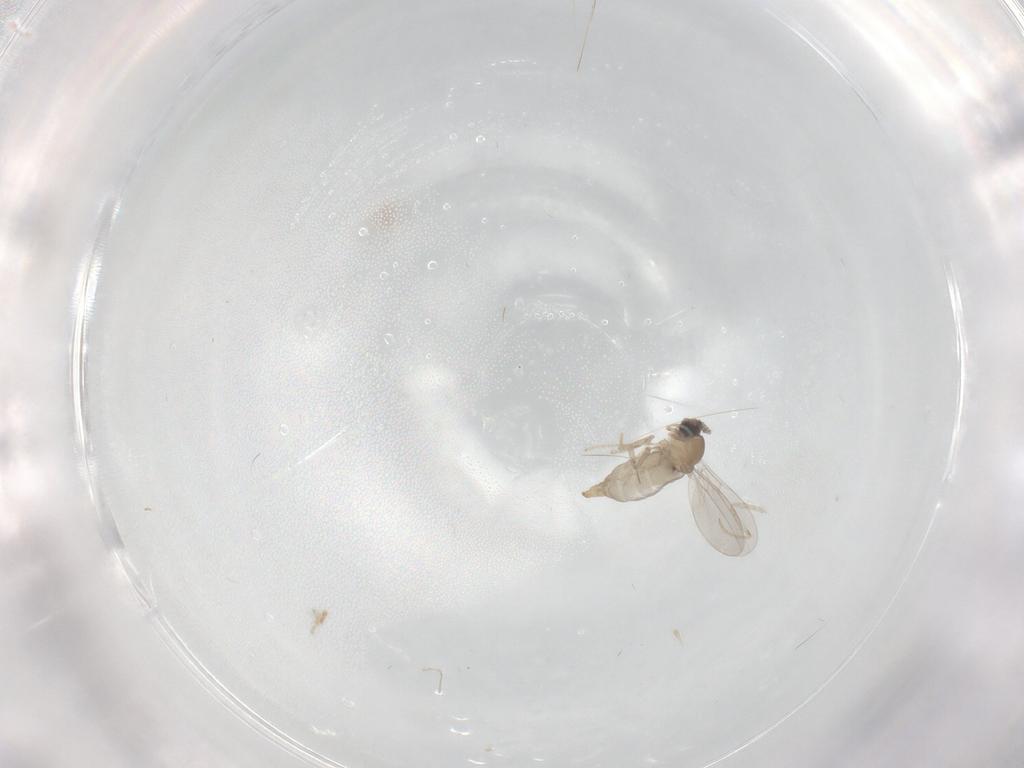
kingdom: Animalia
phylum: Arthropoda
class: Insecta
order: Diptera
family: Cecidomyiidae
